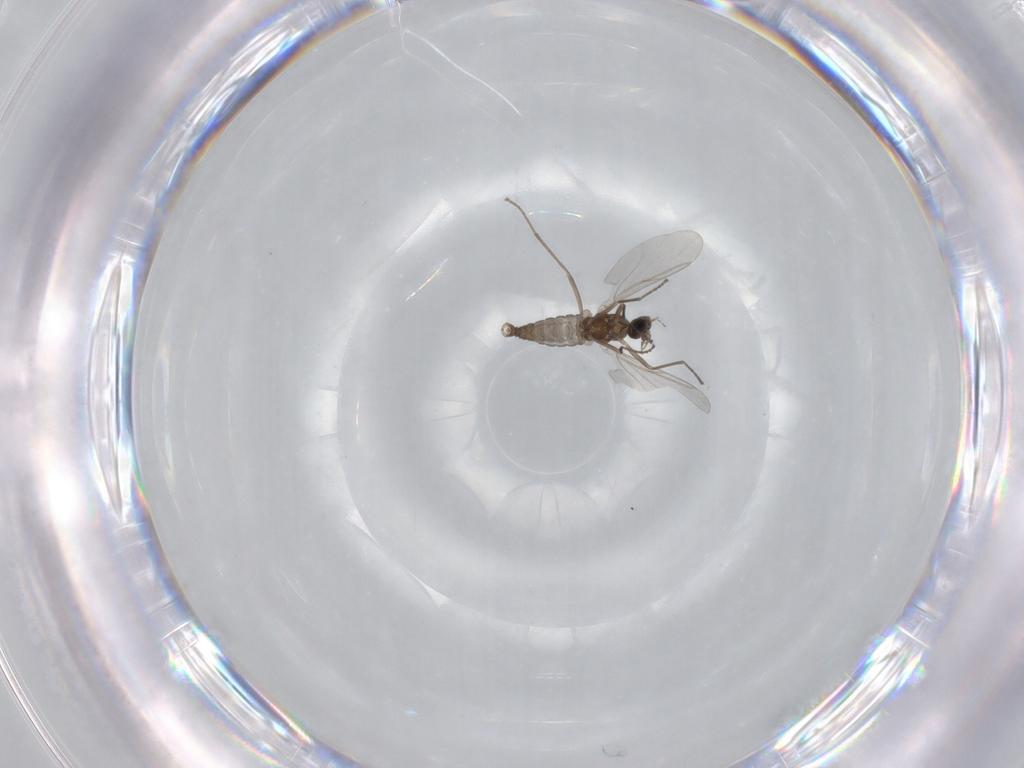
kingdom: Animalia
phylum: Arthropoda
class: Insecta
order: Diptera
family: Cecidomyiidae
